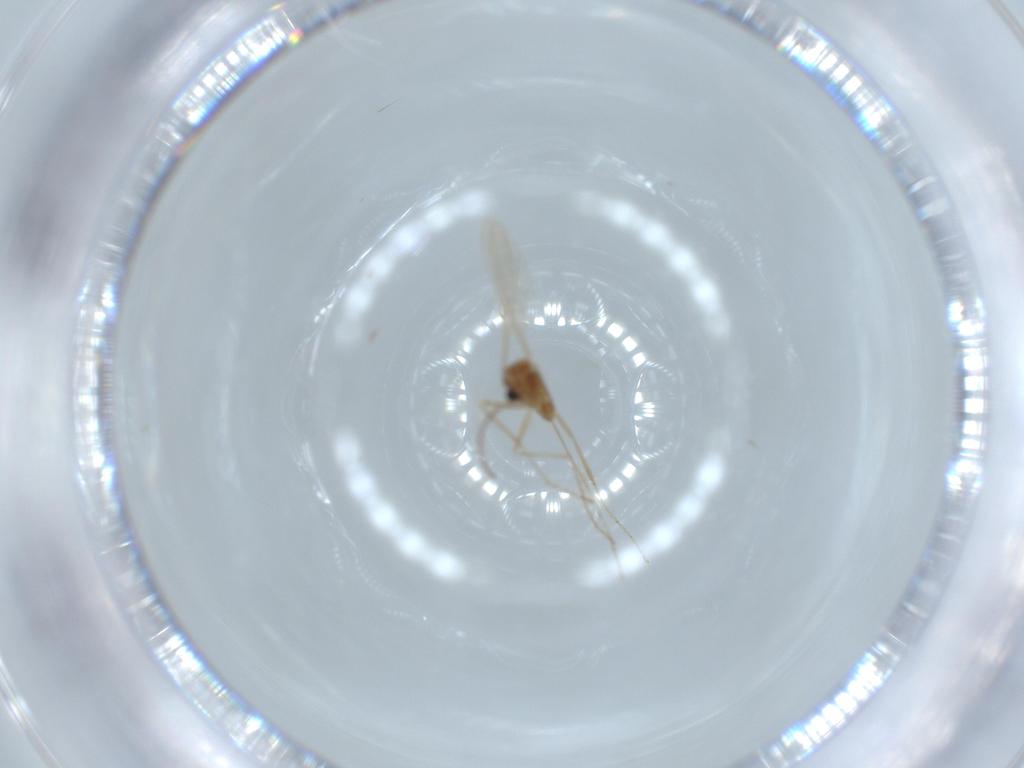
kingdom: Animalia
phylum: Arthropoda
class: Insecta
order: Diptera
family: Cecidomyiidae
